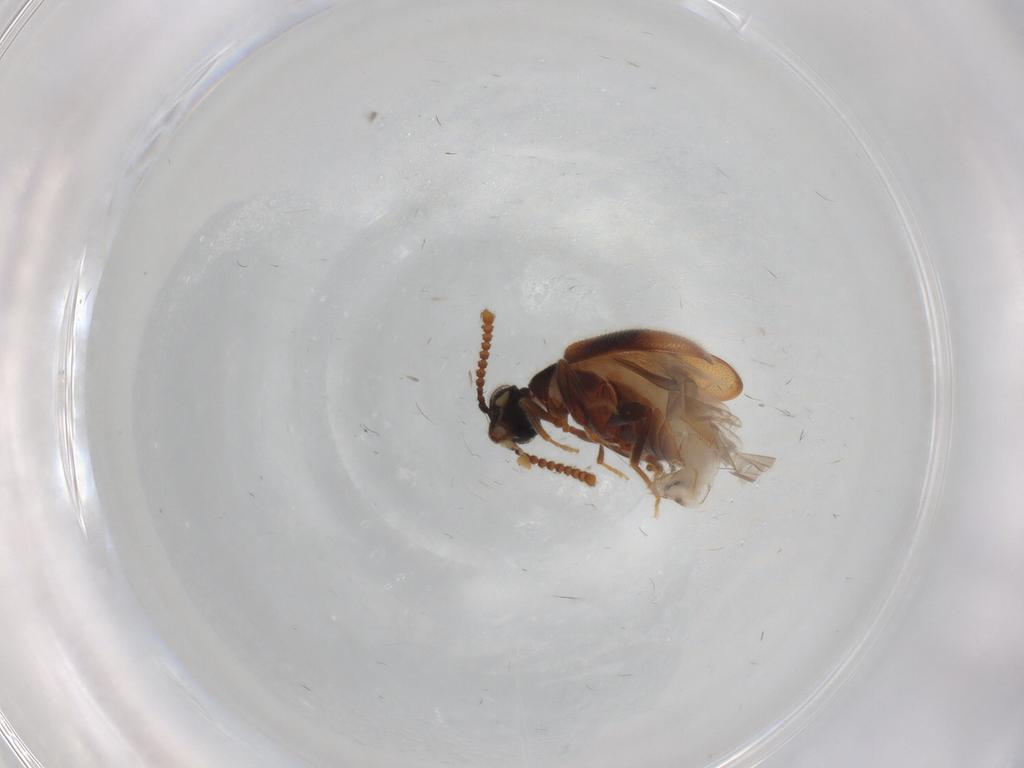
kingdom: Animalia
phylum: Arthropoda
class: Insecta
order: Coleoptera
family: Aderidae
